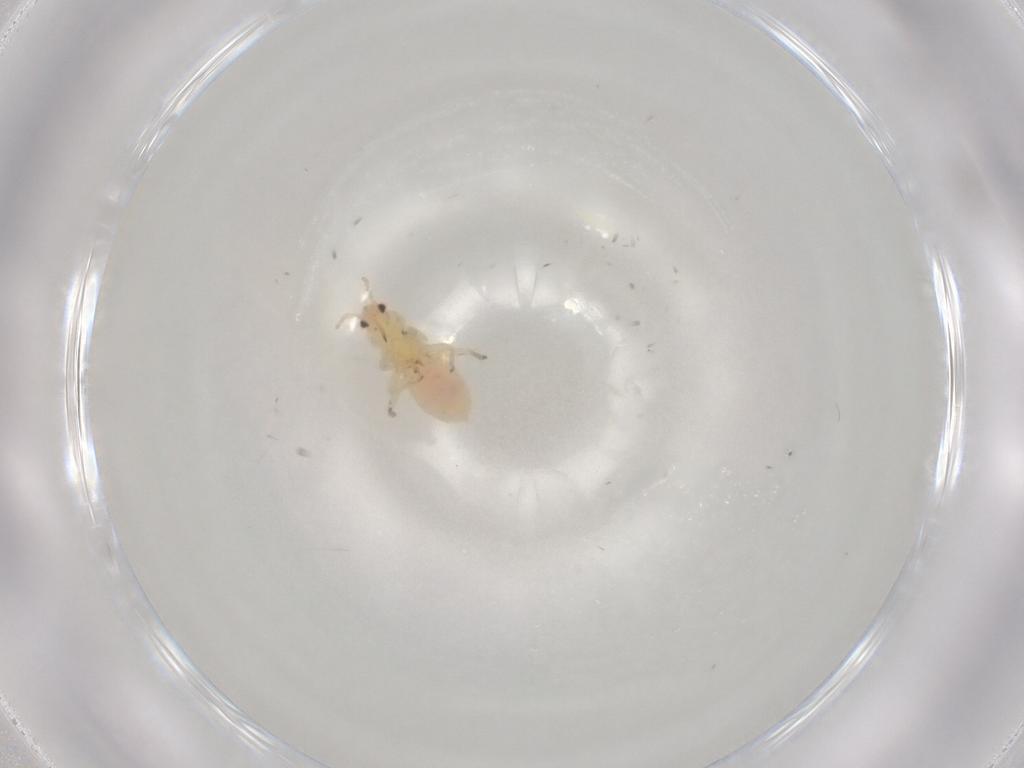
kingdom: Animalia
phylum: Arthropoda
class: Insecta
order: Hemiptera
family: Anthocoridae
